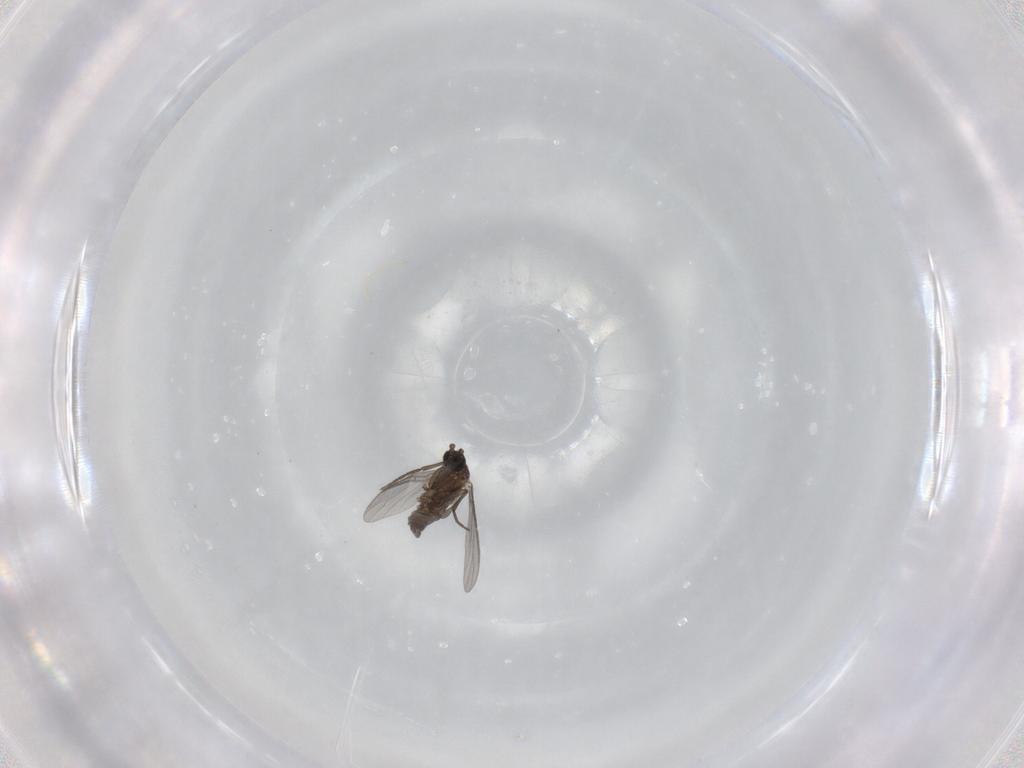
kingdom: Animalia
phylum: Arthropoda
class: Insecta
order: Diptera
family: Sciaridae
